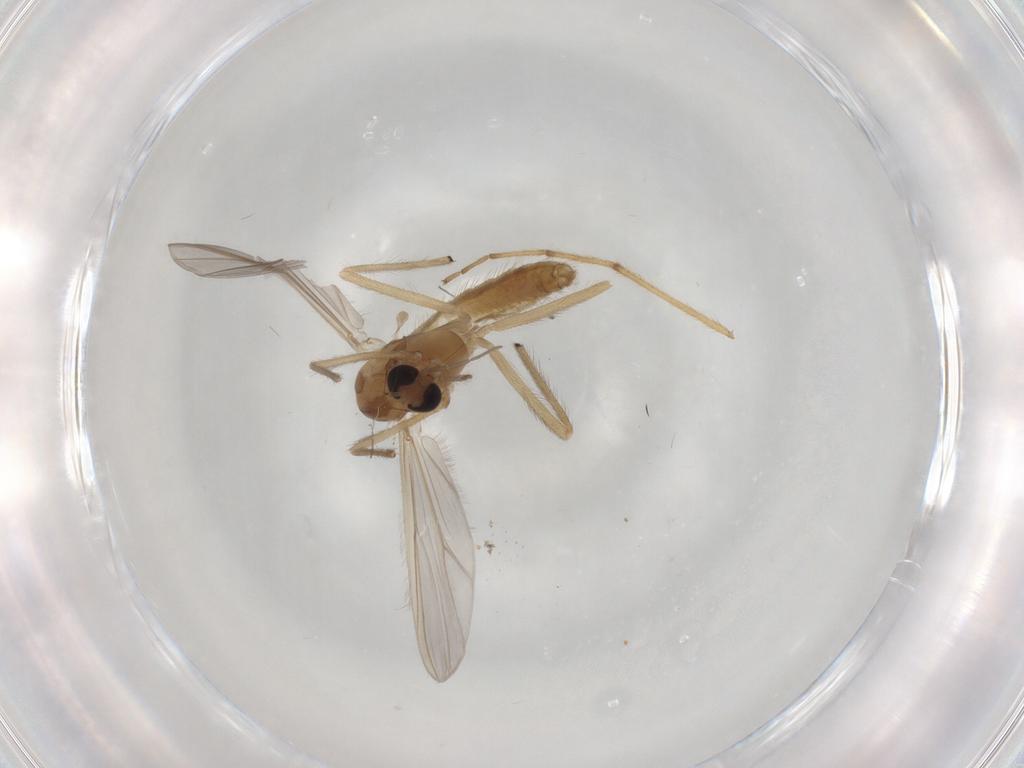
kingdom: Animalia
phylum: Arthropoda
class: Insecta
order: Diptera
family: Chironomidae
